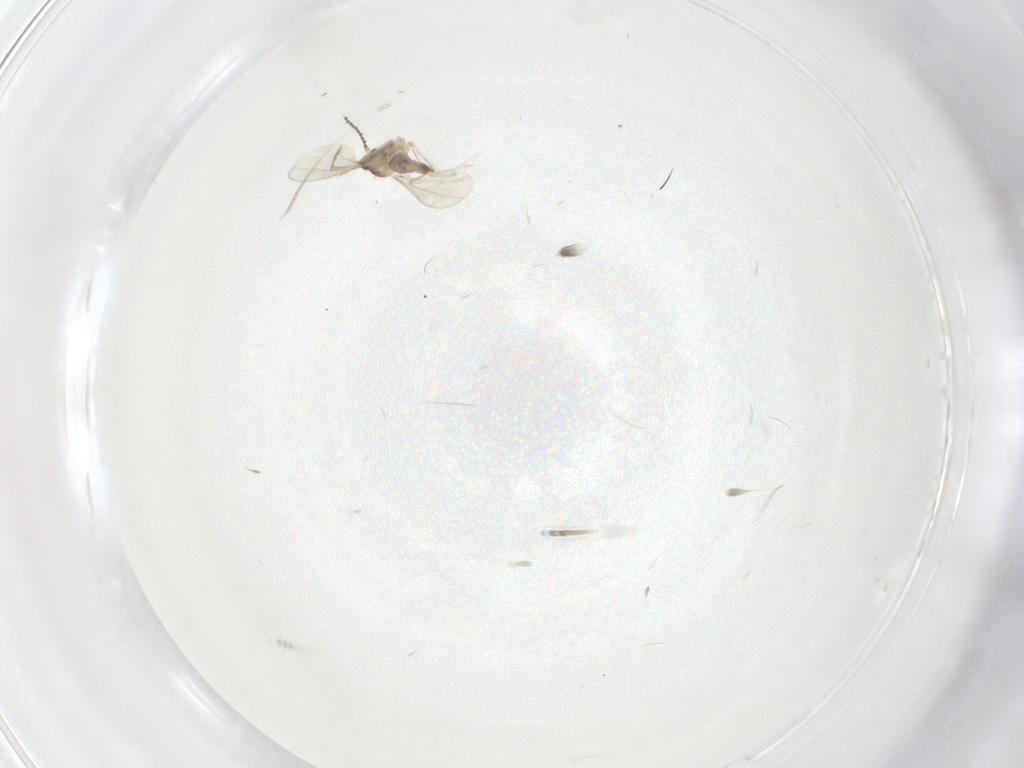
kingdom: Animalia
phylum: Arthropoda
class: Insecta
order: Diptera
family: Cecidomyiidae
